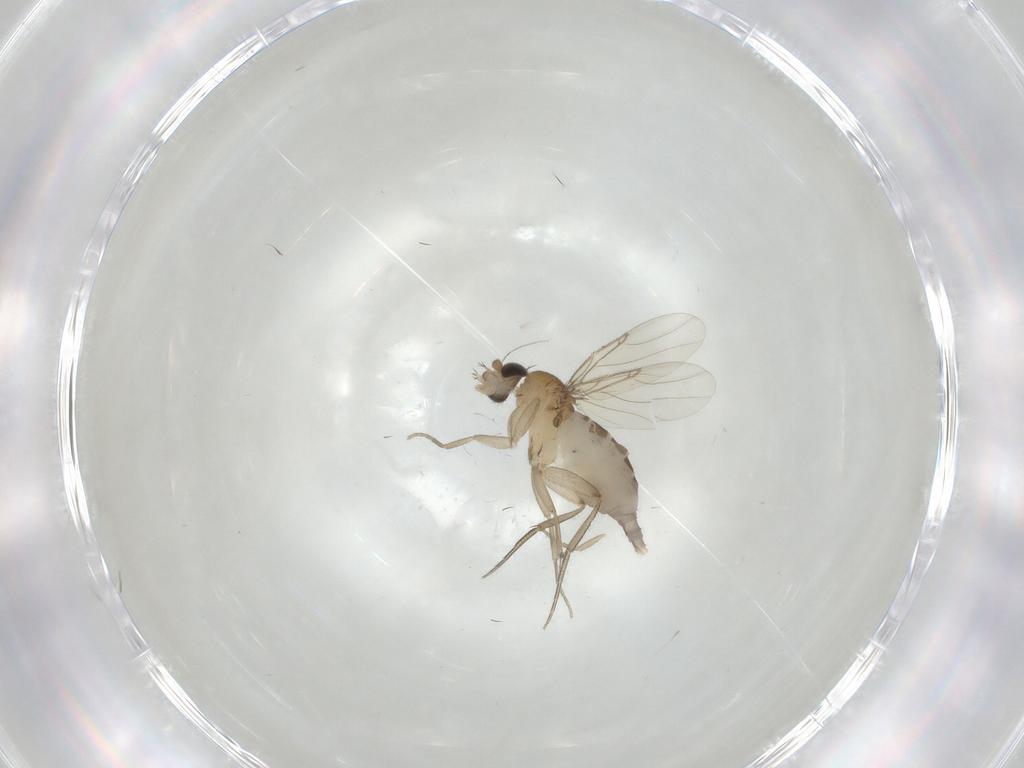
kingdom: Animalia
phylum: Arthropoda
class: Insecta
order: Diptera
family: Phoridae
